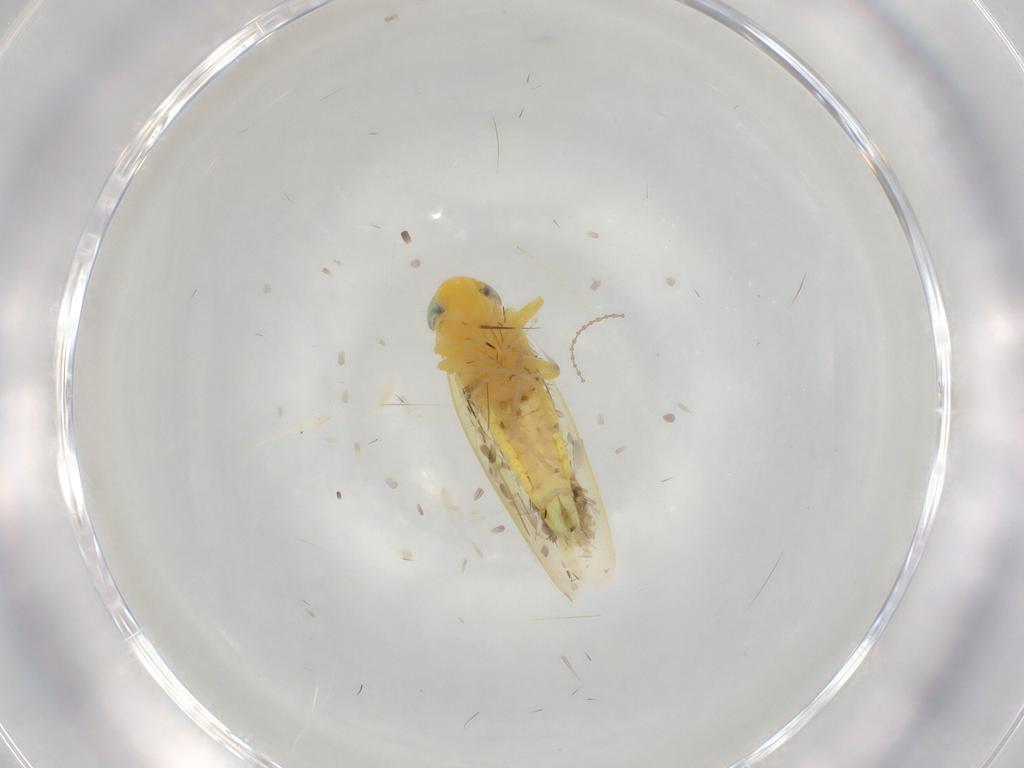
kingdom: Animalia
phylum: Arthropoda
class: Insecta
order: Hemiptera
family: Cicadellidae
